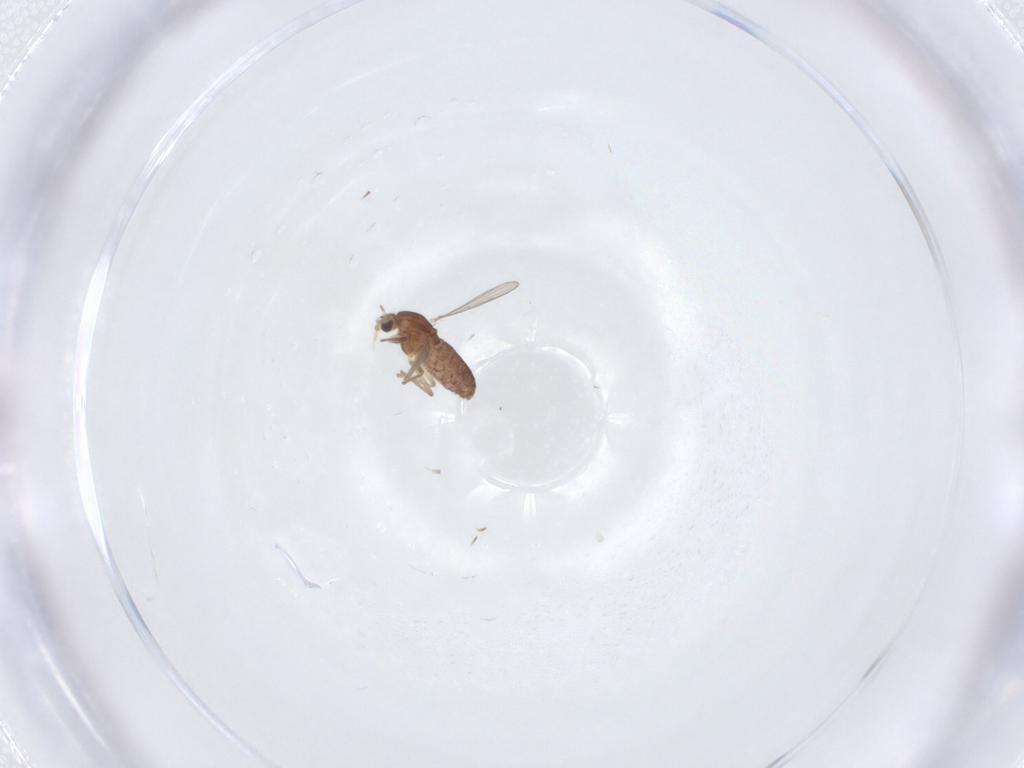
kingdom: Animalia
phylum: Arthropoda
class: Insecta
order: Diptera
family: Chironomidae
